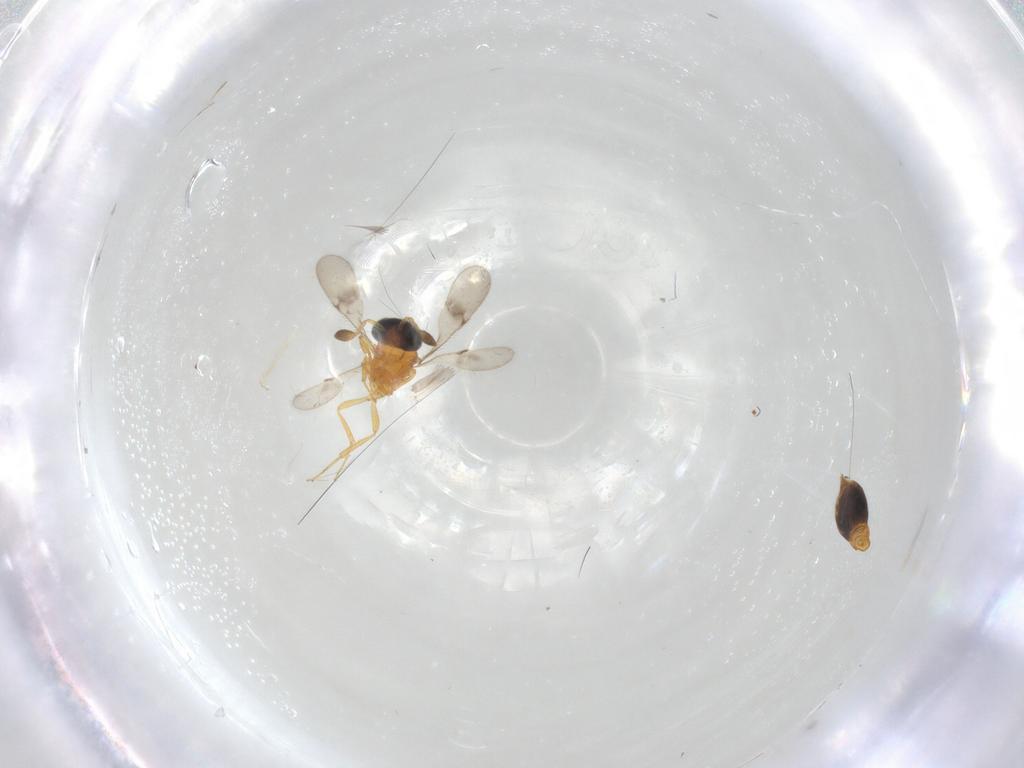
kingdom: Animalia
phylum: Arthropoda
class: Insecta
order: Hymenoptera
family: Scelionidae
